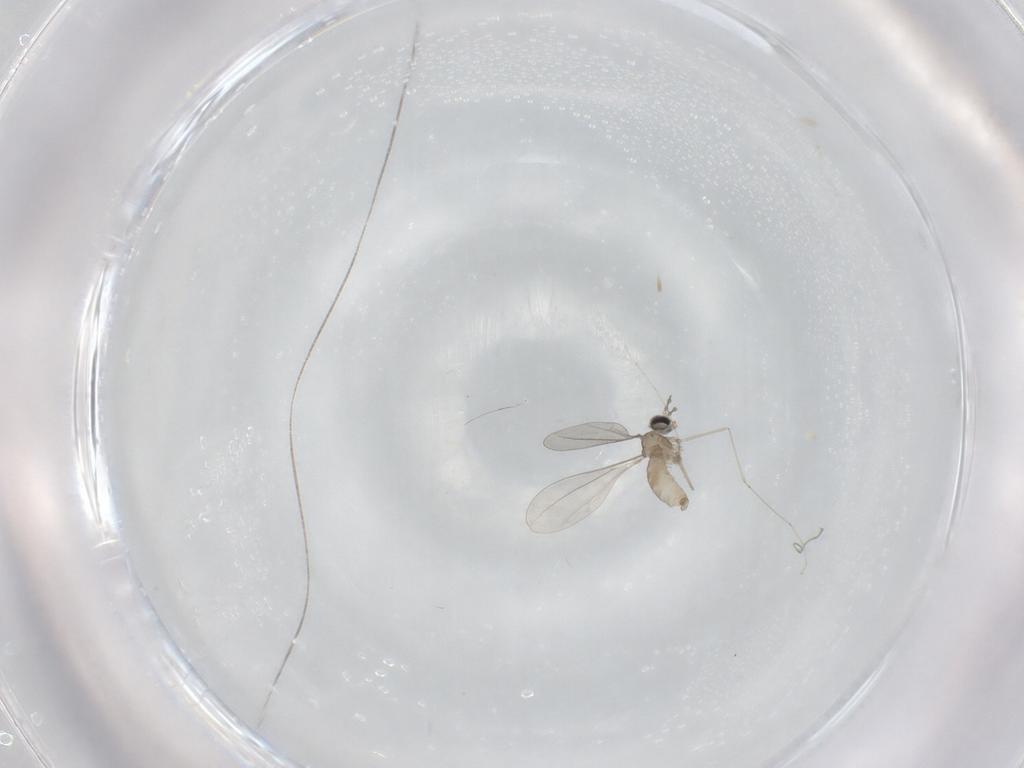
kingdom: Animalia
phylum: Arthropoda
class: Insecta
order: Diptera
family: Cecidomyiidae
